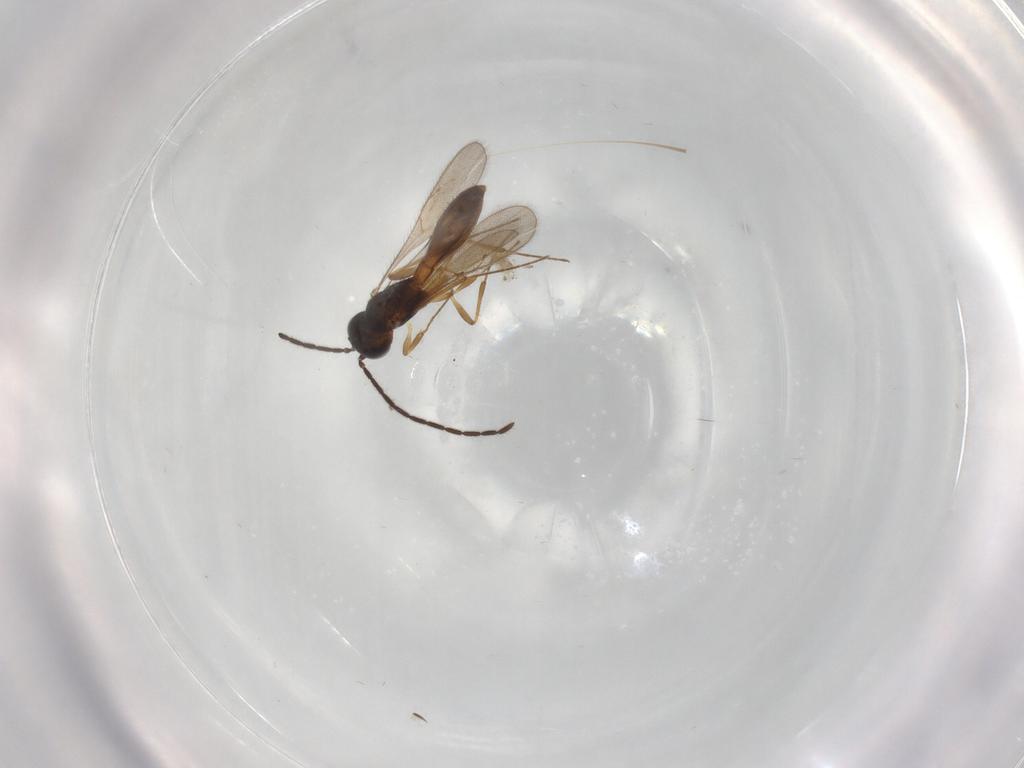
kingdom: Animalia
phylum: Arthropoda
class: Insecta
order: Hymenoptera
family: Scelionidae
